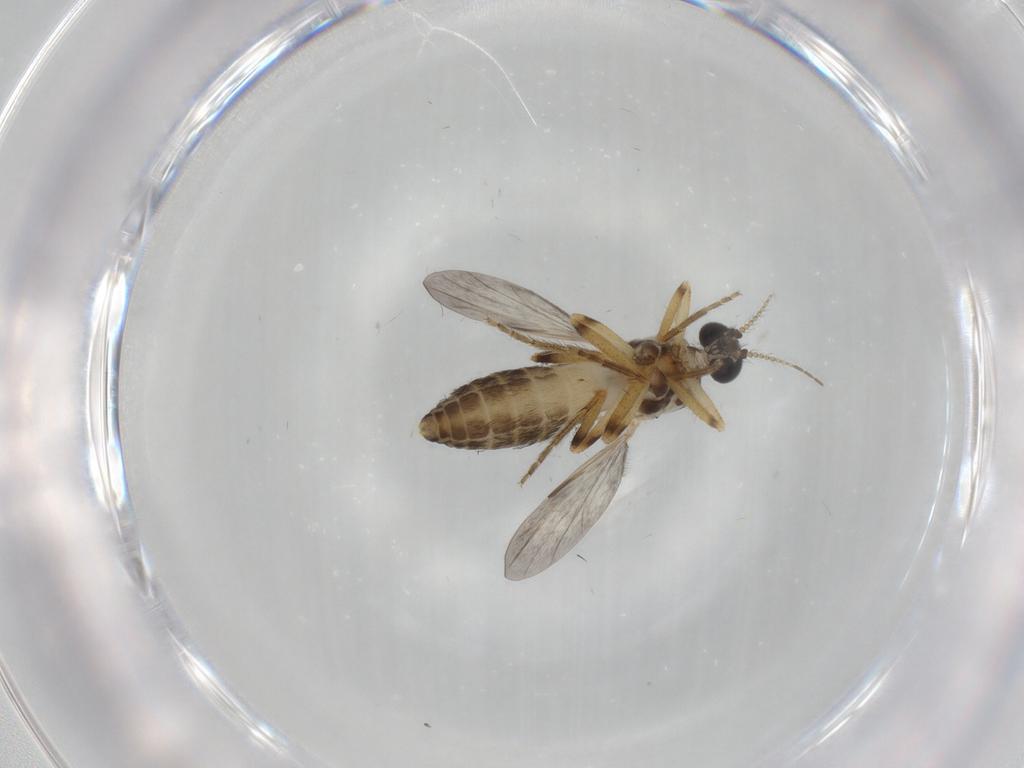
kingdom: Animalia
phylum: Arthropoda
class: Insecta
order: Diptera
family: Ceratopogonidae
